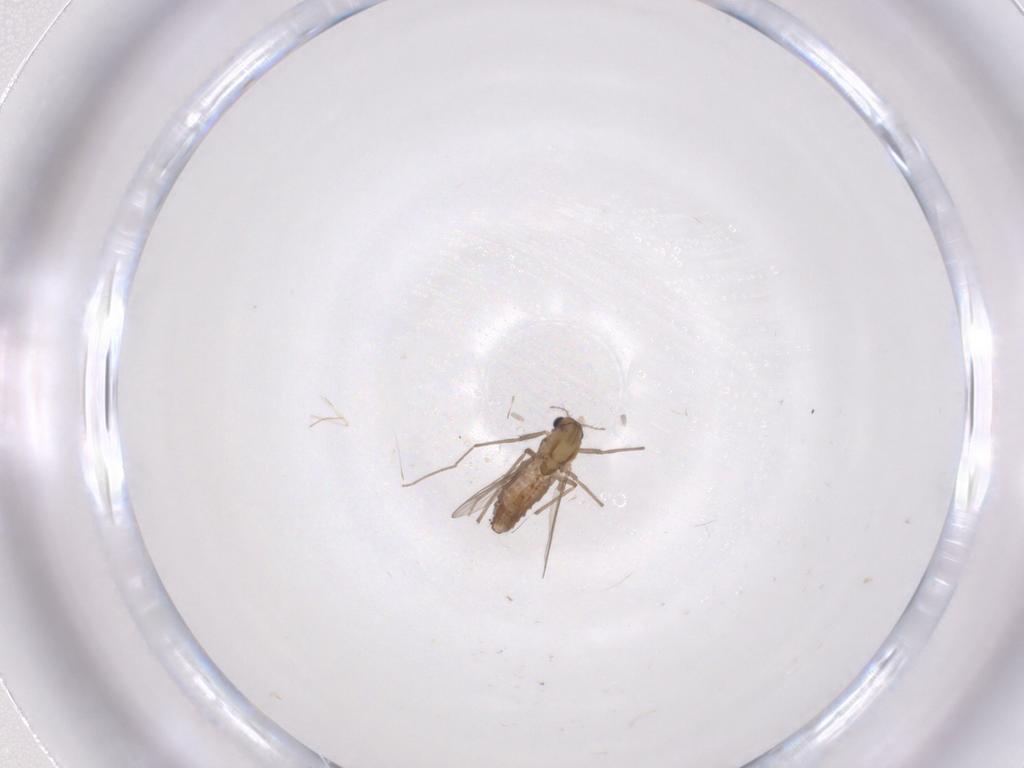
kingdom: Animalia
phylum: Arthropoda
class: Insecta
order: Diptera
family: Chironomidae
